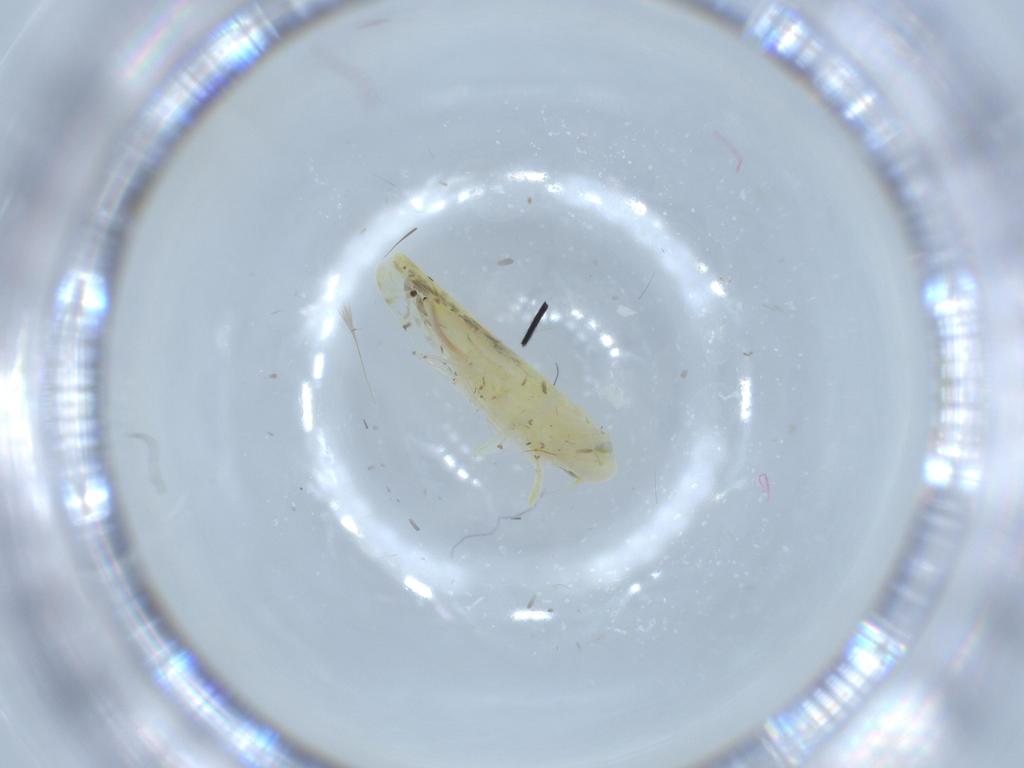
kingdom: Animalia
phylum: Arthropoda
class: Insecta
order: Hemiptera
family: Cicadellidae
